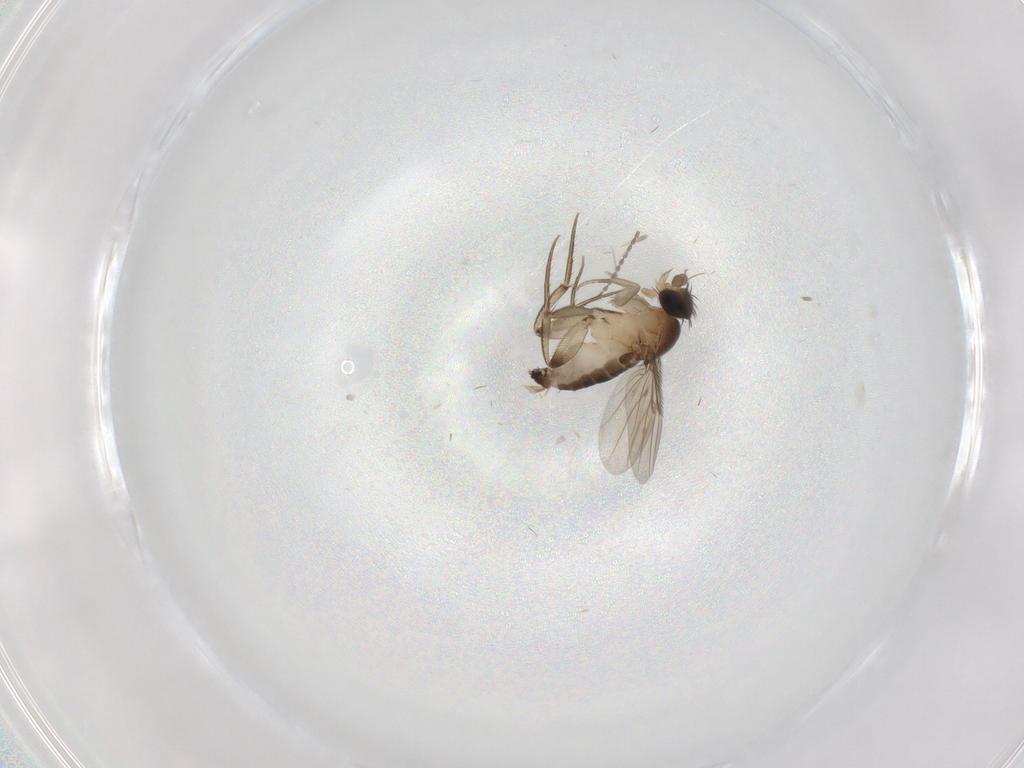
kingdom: Animalia
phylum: Arthropoda
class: Insecta
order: Diptera
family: Phoridae
